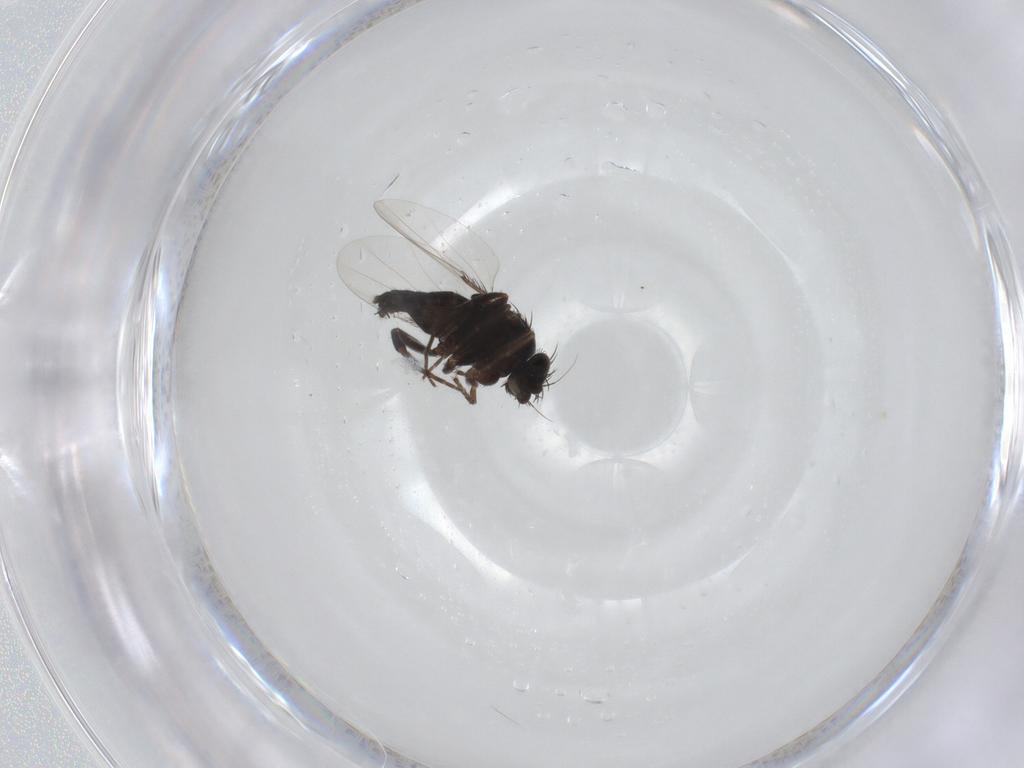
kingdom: Animalia
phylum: Arthropoda
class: Insecta
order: Diptera
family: Phoridae
